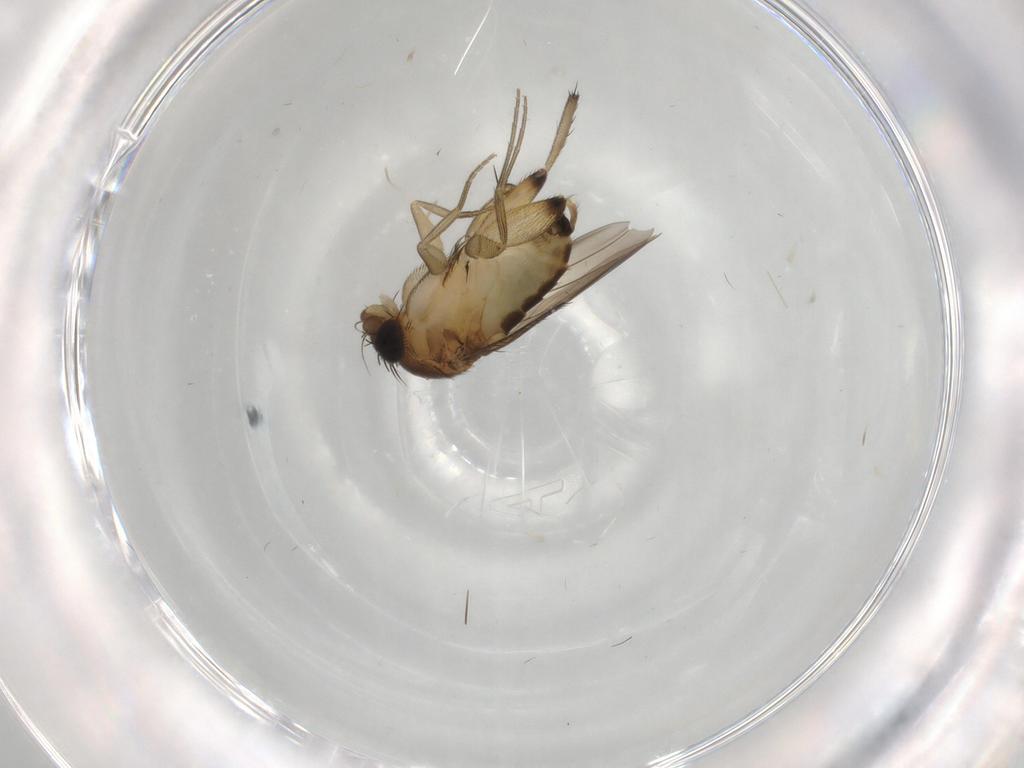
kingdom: Animalia
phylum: Arthropoda
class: Insecta
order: Diptera
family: Phoridae
